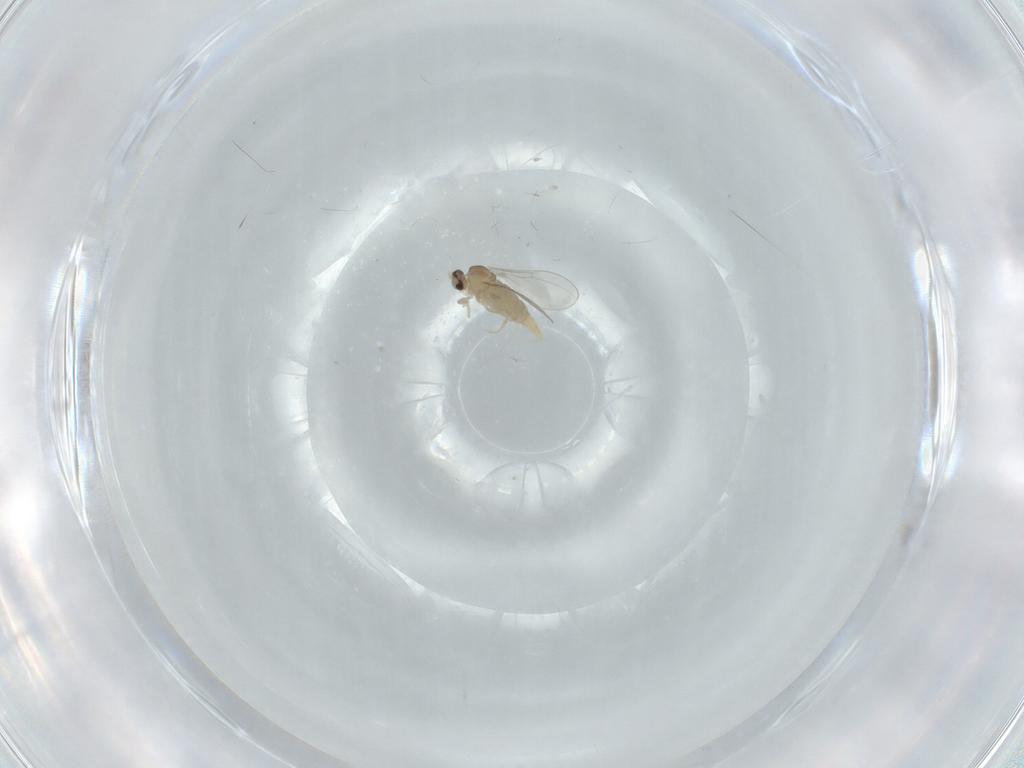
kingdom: Animalia
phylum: Arthropoda
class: Insecta
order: Diptera
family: Cecidomyiidae
